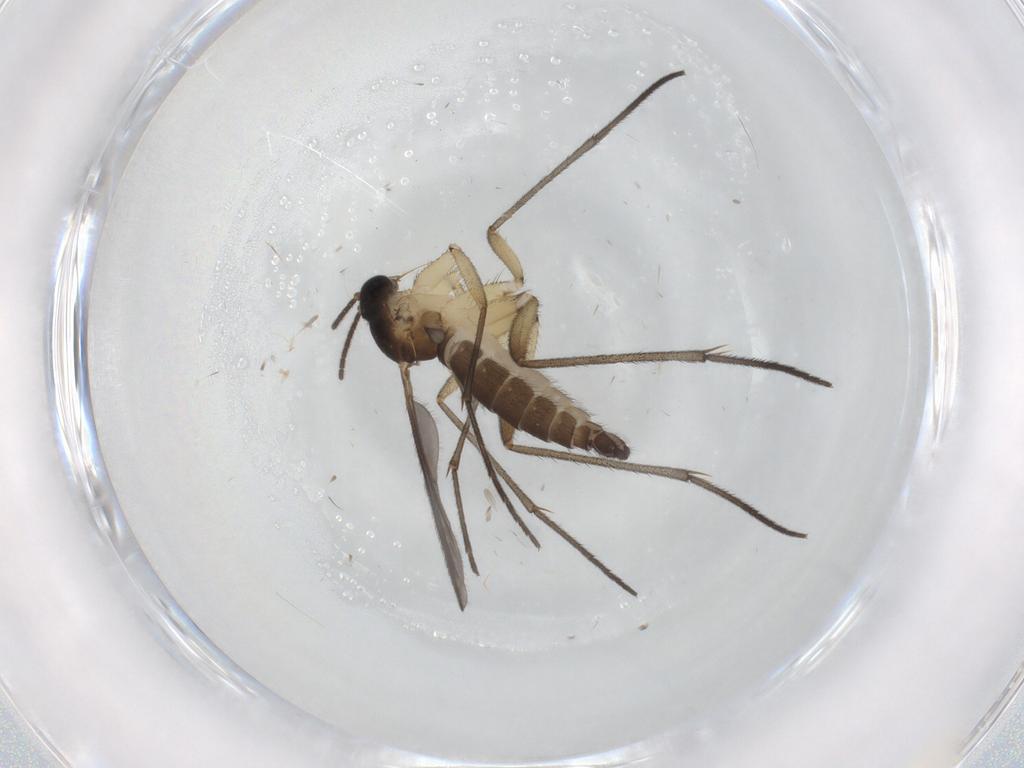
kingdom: Animalia
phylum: Arthropoda
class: Insecta
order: Diptera
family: Sciaridae
